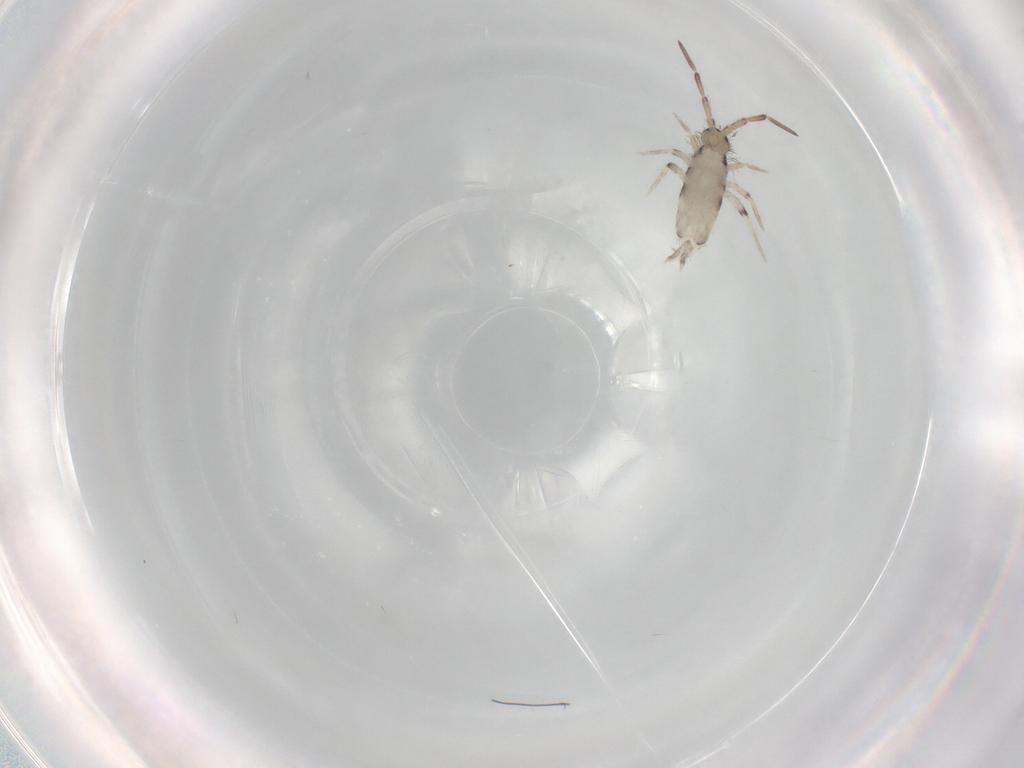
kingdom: Animalia
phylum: Arthropoda
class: Collembola
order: Entomobryomorpha
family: Entomobryidae
